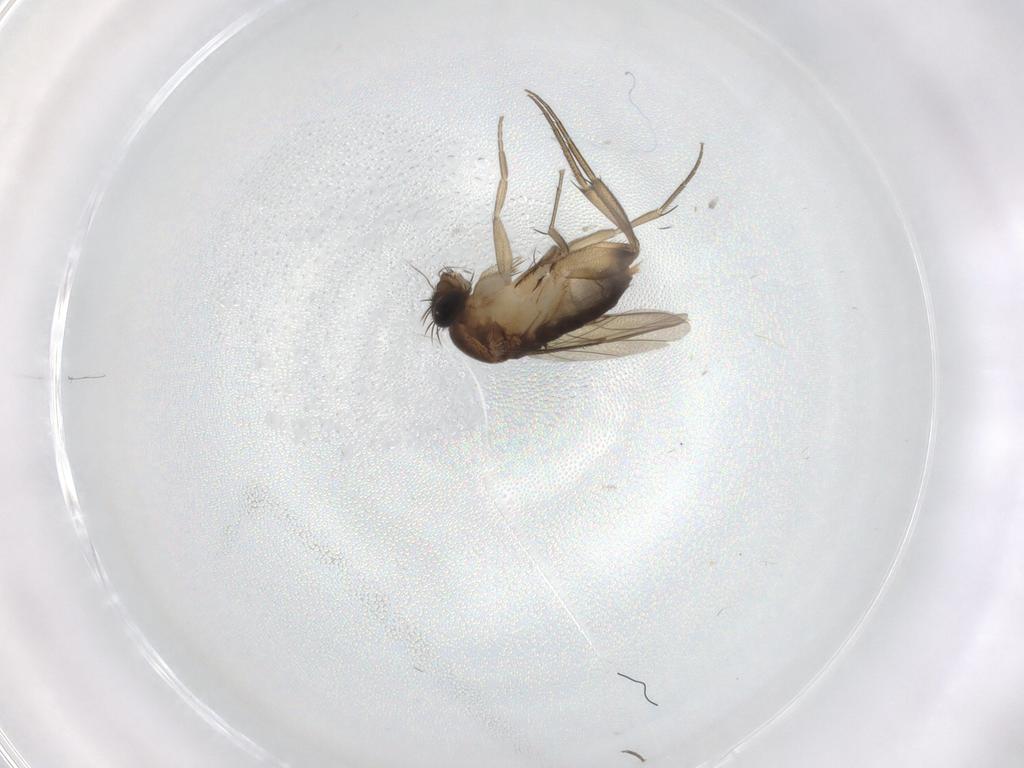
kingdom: Animalia
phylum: Arthropoda
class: Insecta
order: Diptera
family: Phoridae
